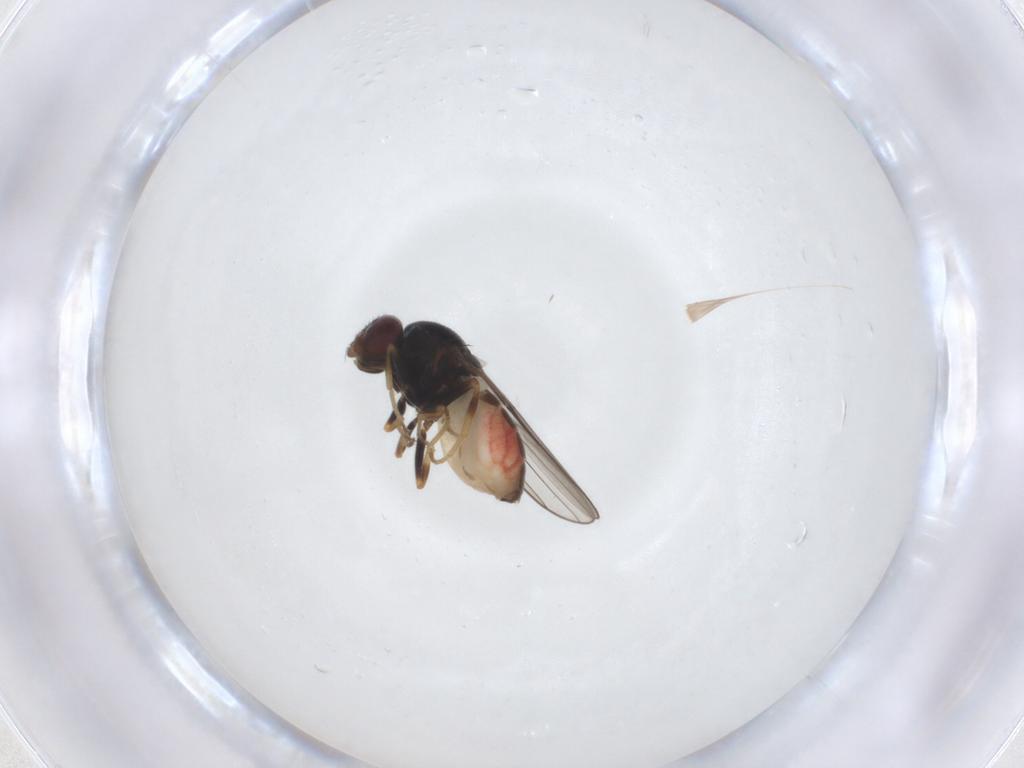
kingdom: Animalia
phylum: Arthropoda
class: Insecta
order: Diptera
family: Chloropidae
